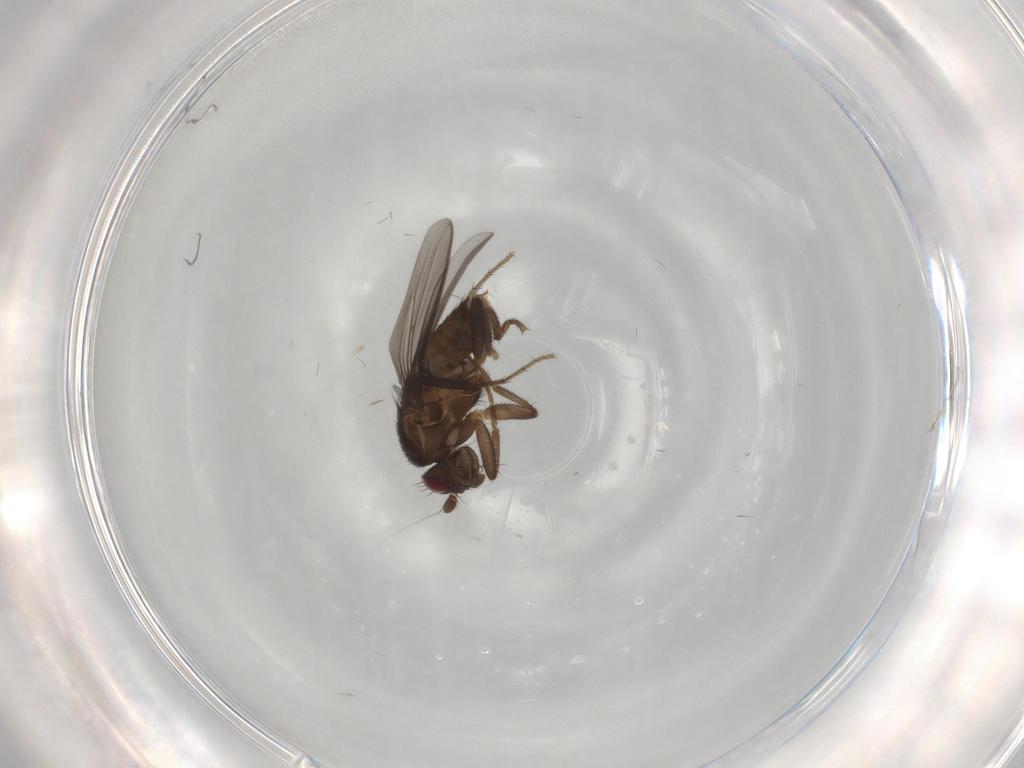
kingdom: Animalia
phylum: Arthropoda
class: Insecta
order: Diptera
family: Sphaeroceridae
